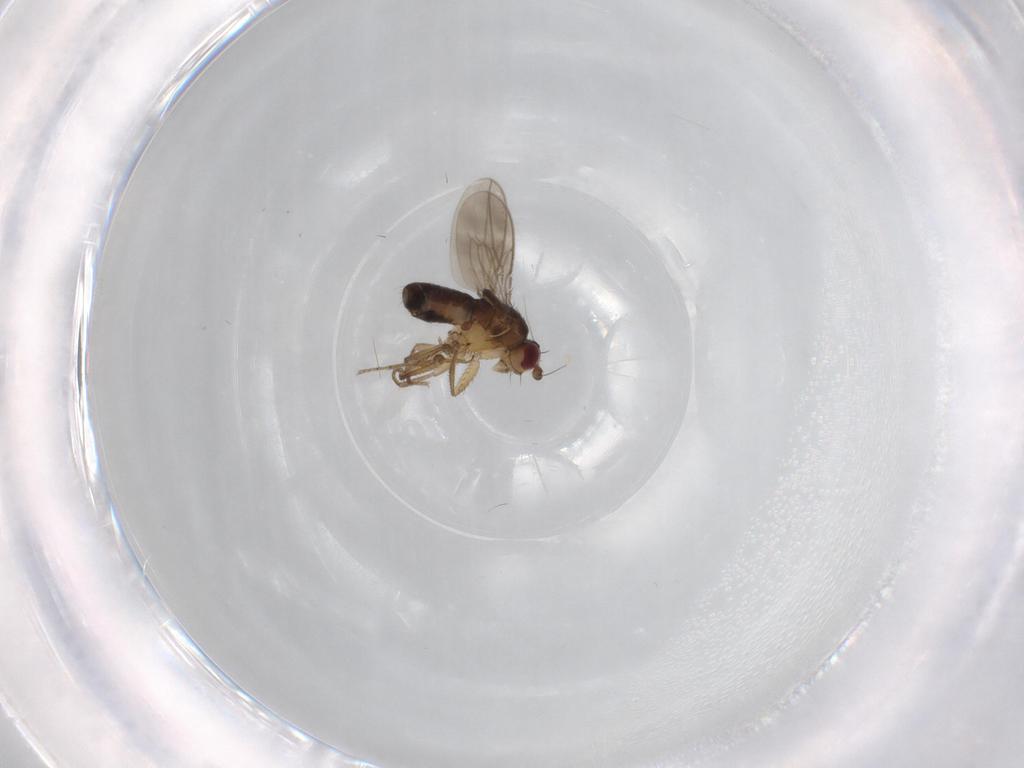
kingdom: Animalia
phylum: Arthropoda
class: Insecta
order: Diptera
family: Sphaeroceridae
